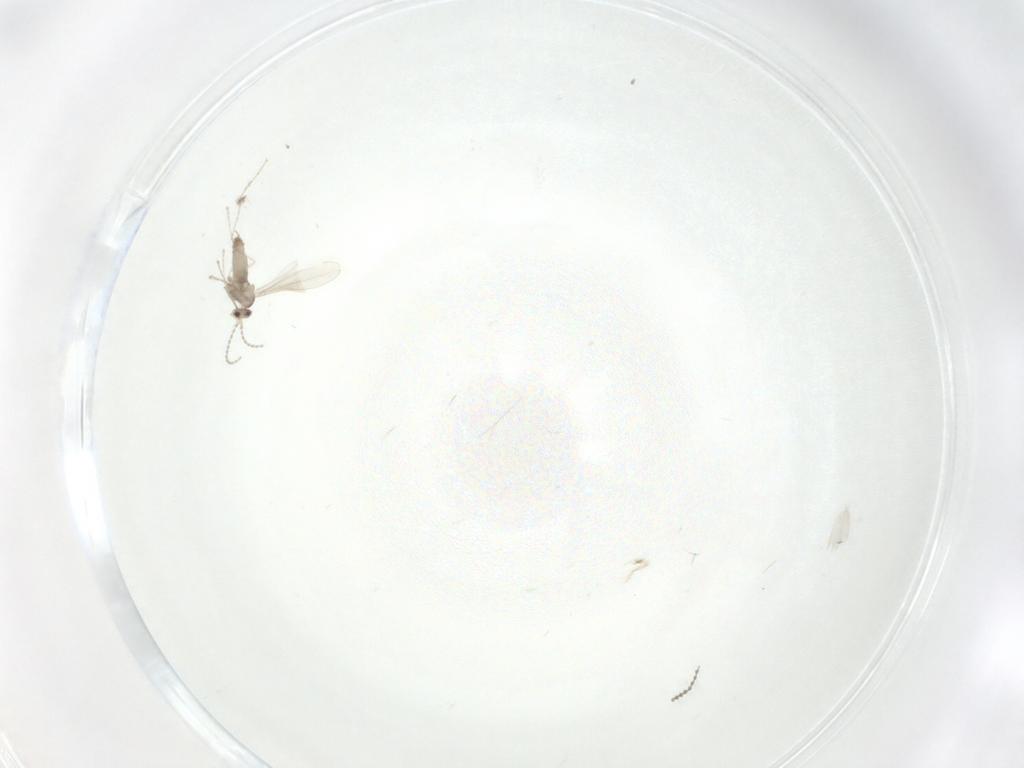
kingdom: Animalia
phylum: Arthropoda
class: Insecta
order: Diptera
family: Cecidomyiidae
